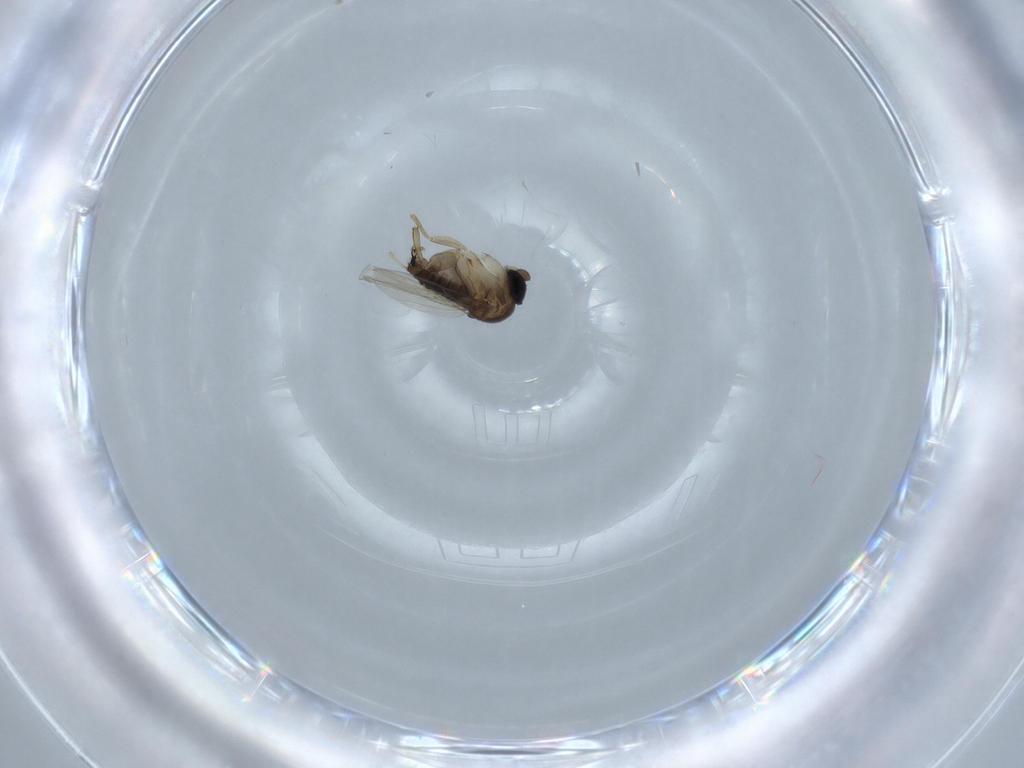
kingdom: Animalia
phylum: Arthropoda
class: Insecta
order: Diptera
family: Phoridae
